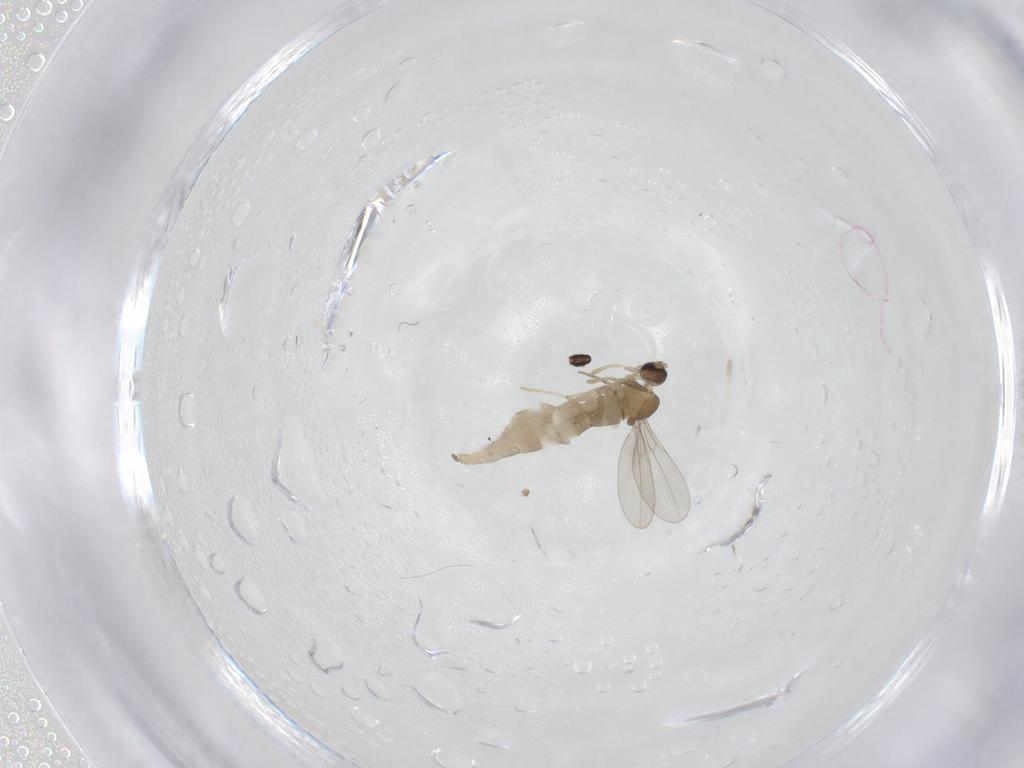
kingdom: Animalia
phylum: Arthropoda
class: Insecta
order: Diptera
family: Cecidomyiidae
